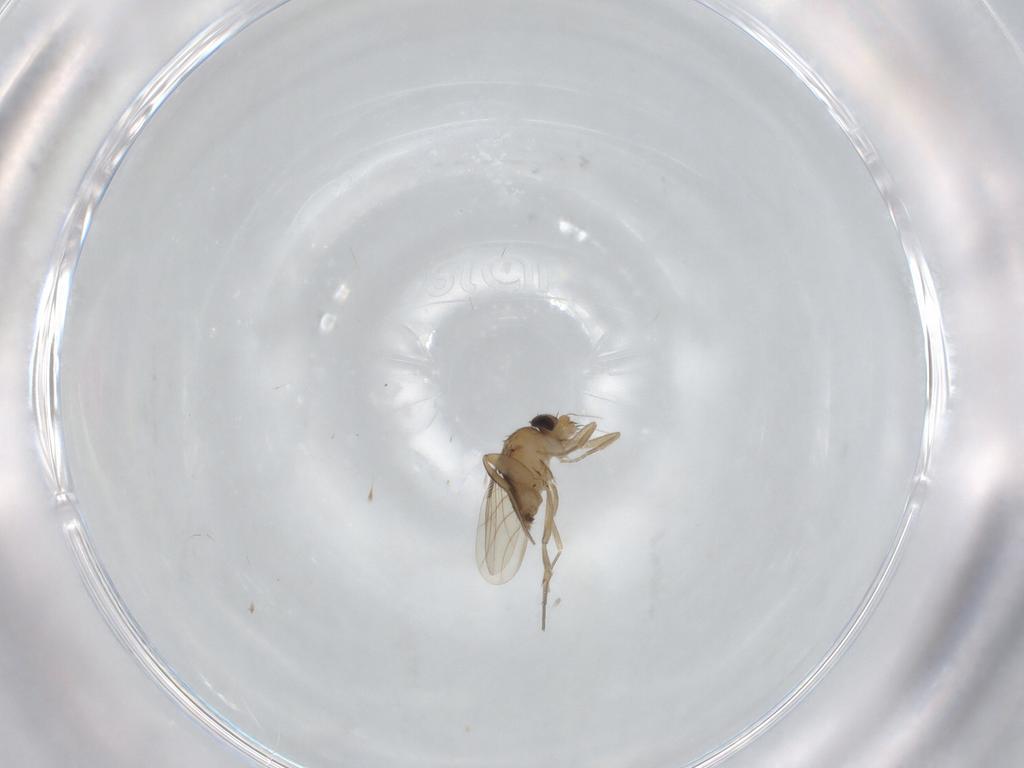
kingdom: Animalia
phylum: Arthropoda
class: Insecta
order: Diptera
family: Phoridae
